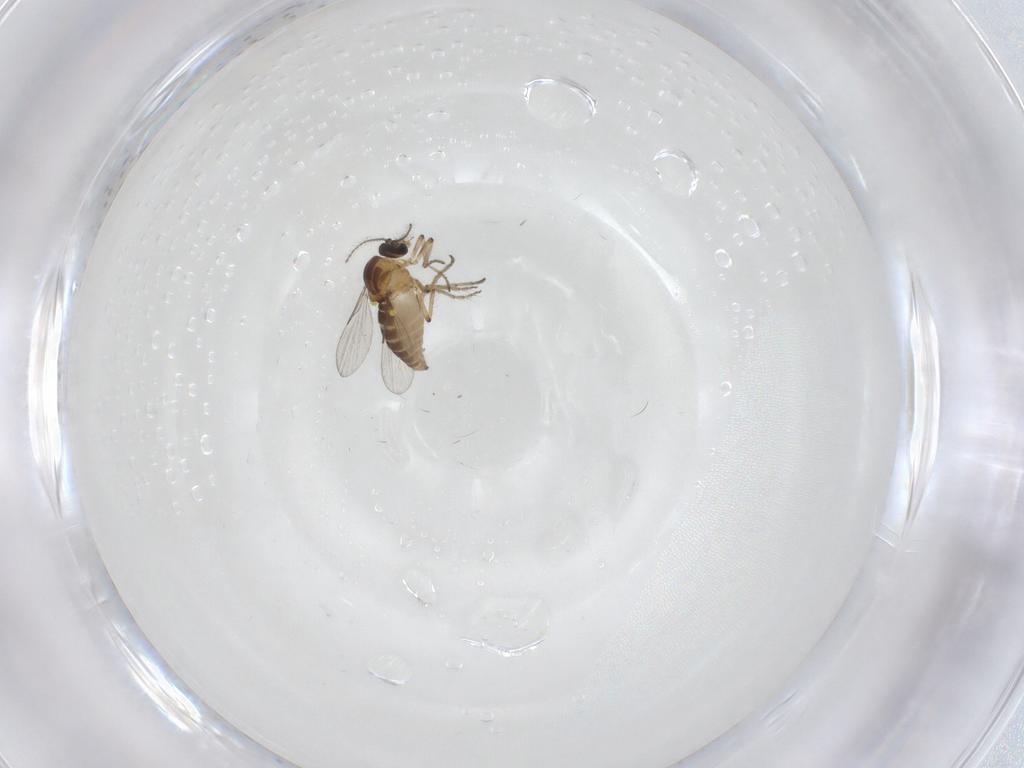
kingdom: Animalia
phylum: Arthropoda
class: Insecta
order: Diptera
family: Ceratopogonidae
